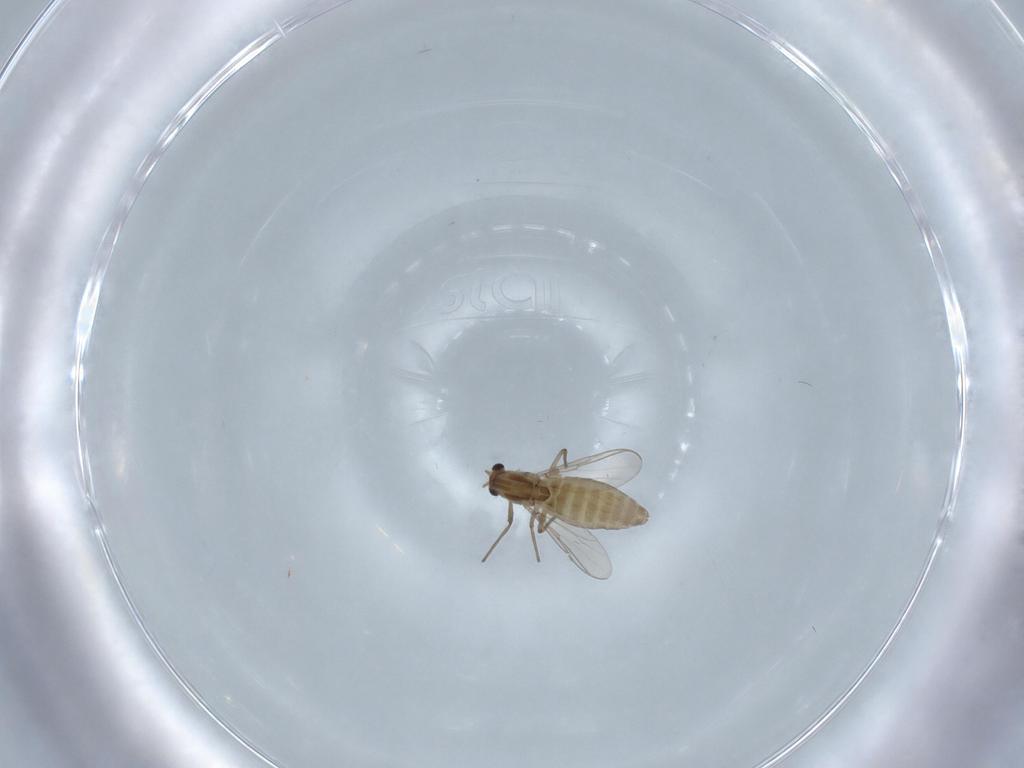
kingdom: Animalia
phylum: Arthropoda
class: Insecta
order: Diptera
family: Chironomidae
